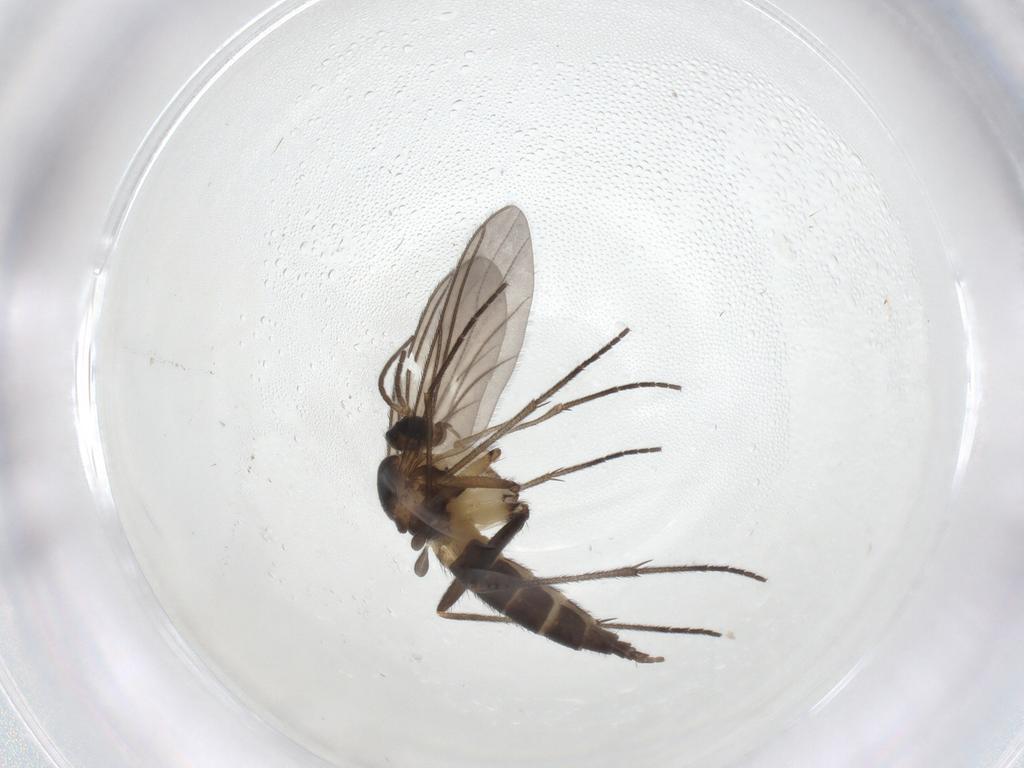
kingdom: Animalia
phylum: Arthropoda
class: Insecta
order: Diptera
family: Sciaridae
